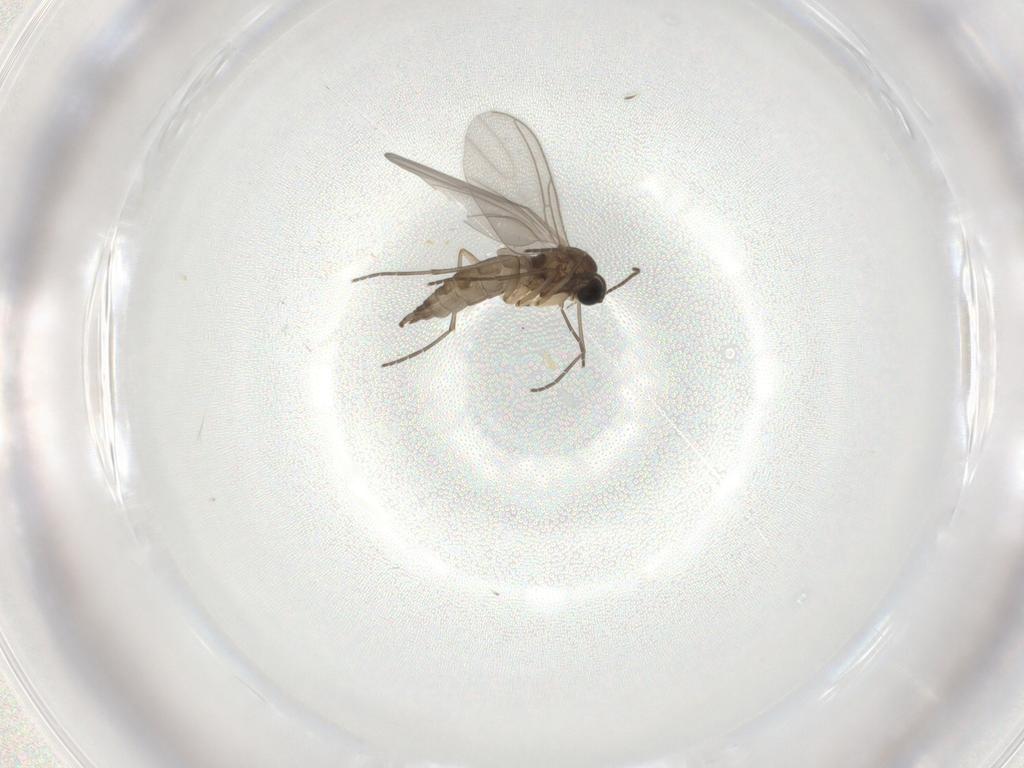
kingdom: Animalia
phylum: Arthropoda
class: Insecta
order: Diptera
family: Sciaridae
